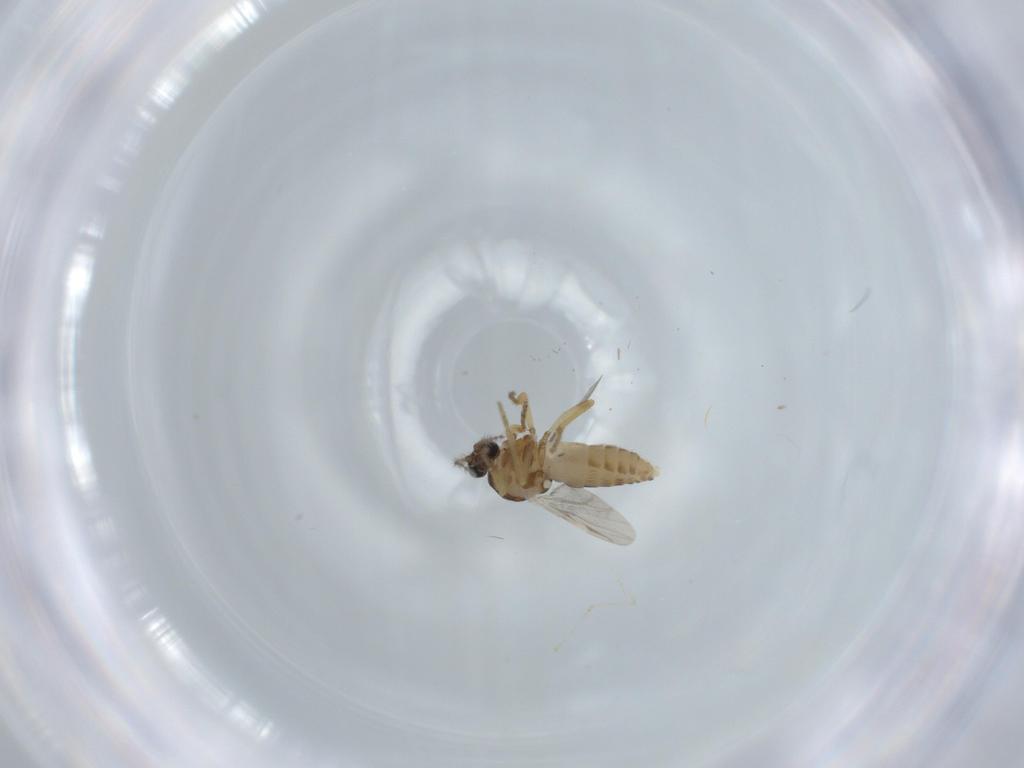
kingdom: Animalia
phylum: Arthropoda
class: Insecta
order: Diptera
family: Ceratopogonidae
